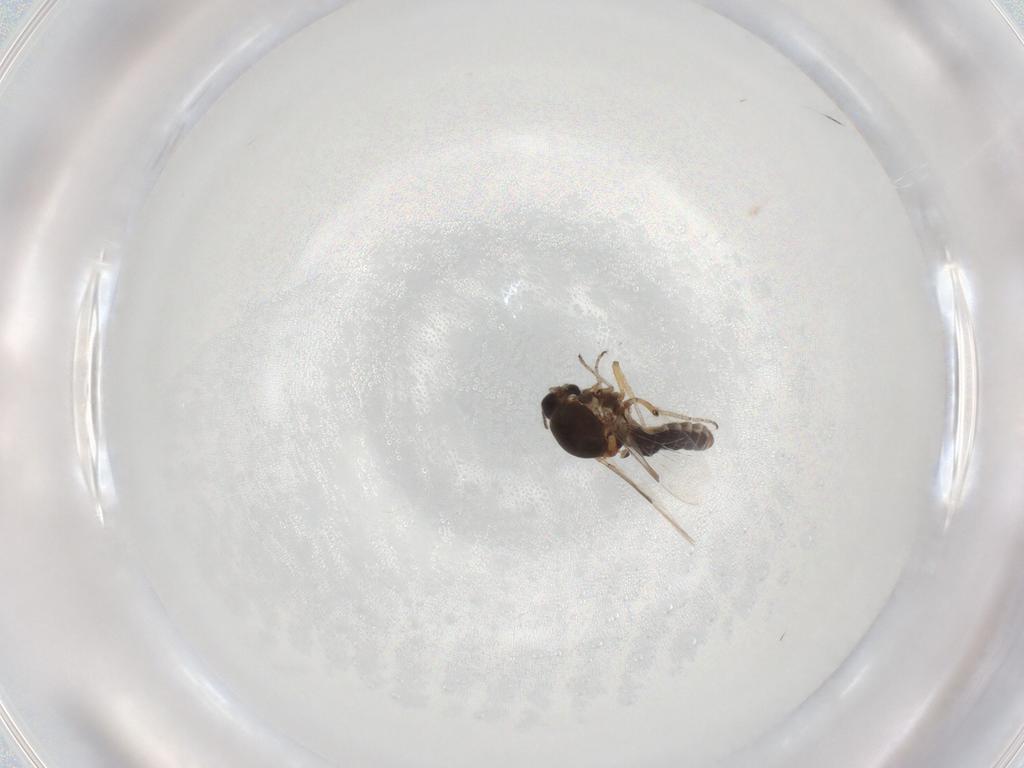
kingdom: Animalia
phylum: Arthropoda
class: Insecta
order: Diptera
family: Ceratopogonidae
